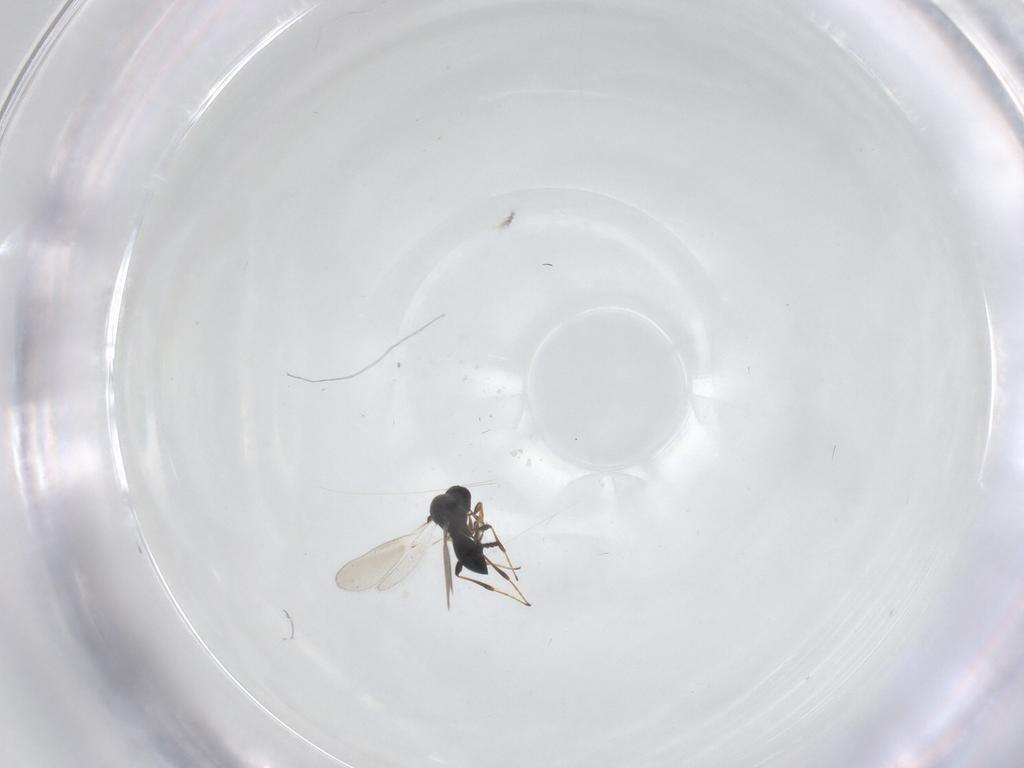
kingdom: Animalia
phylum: Arthropoda
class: Insecta
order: Hymenoptera
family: Platygastridae
